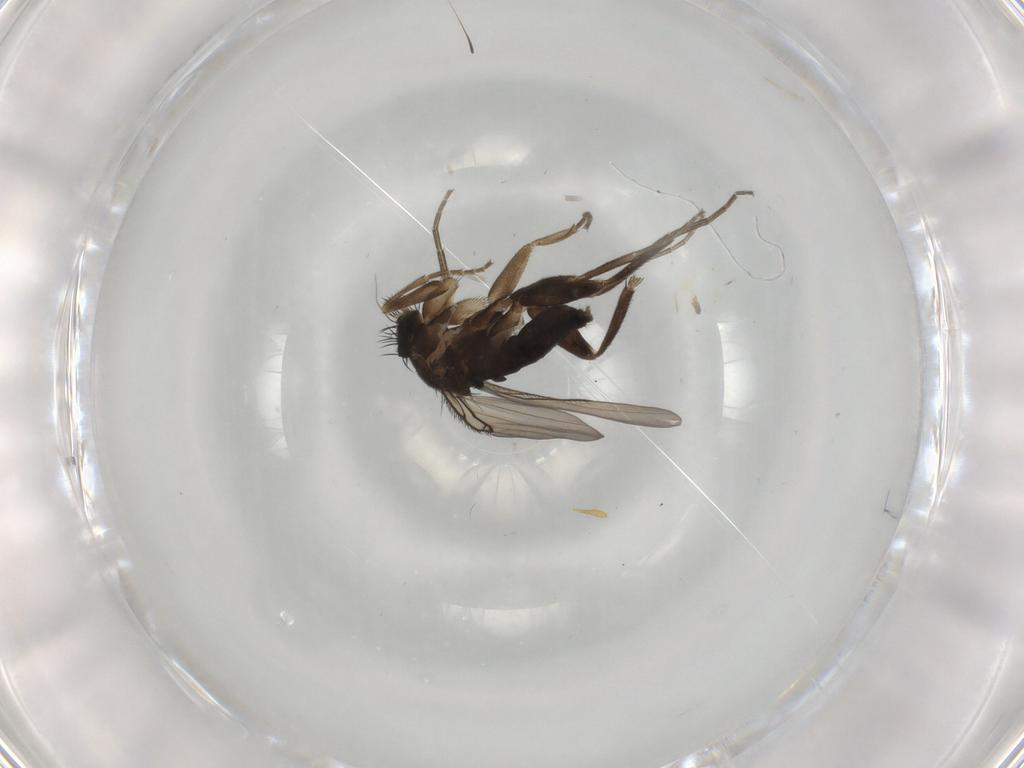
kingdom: Animalia
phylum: Arthropoda
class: Insecta
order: Diptera
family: Phoridae
